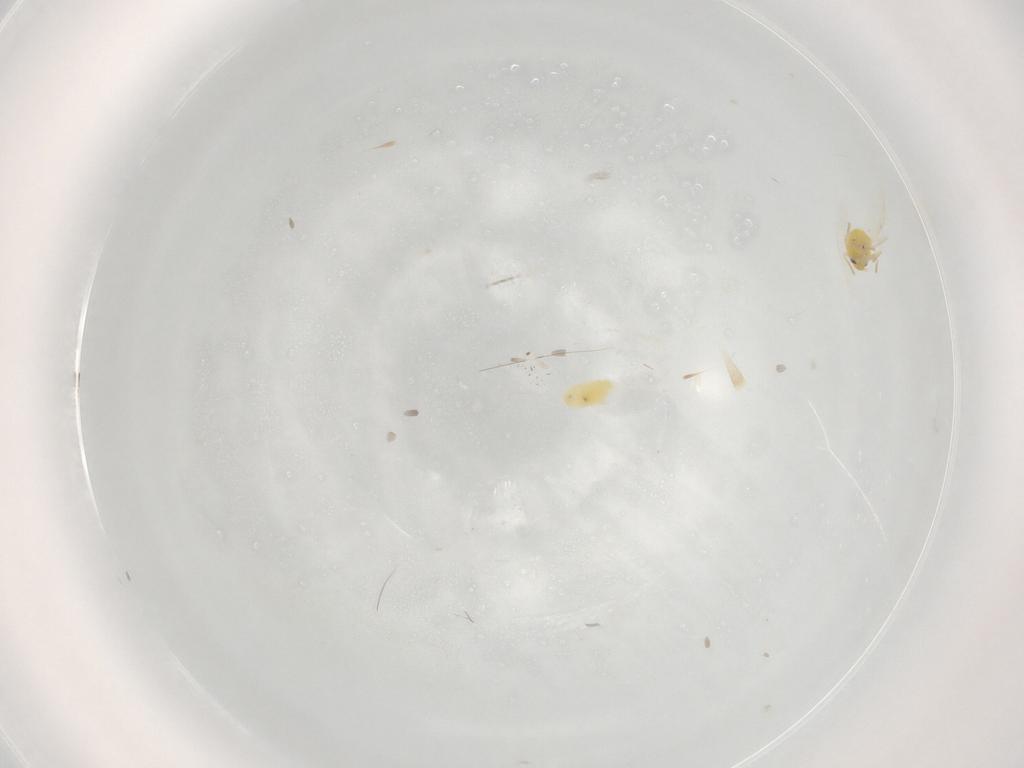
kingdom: Animalia
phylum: Arthropoda
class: Insecta
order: Hemiptera
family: Aleyrodidae
